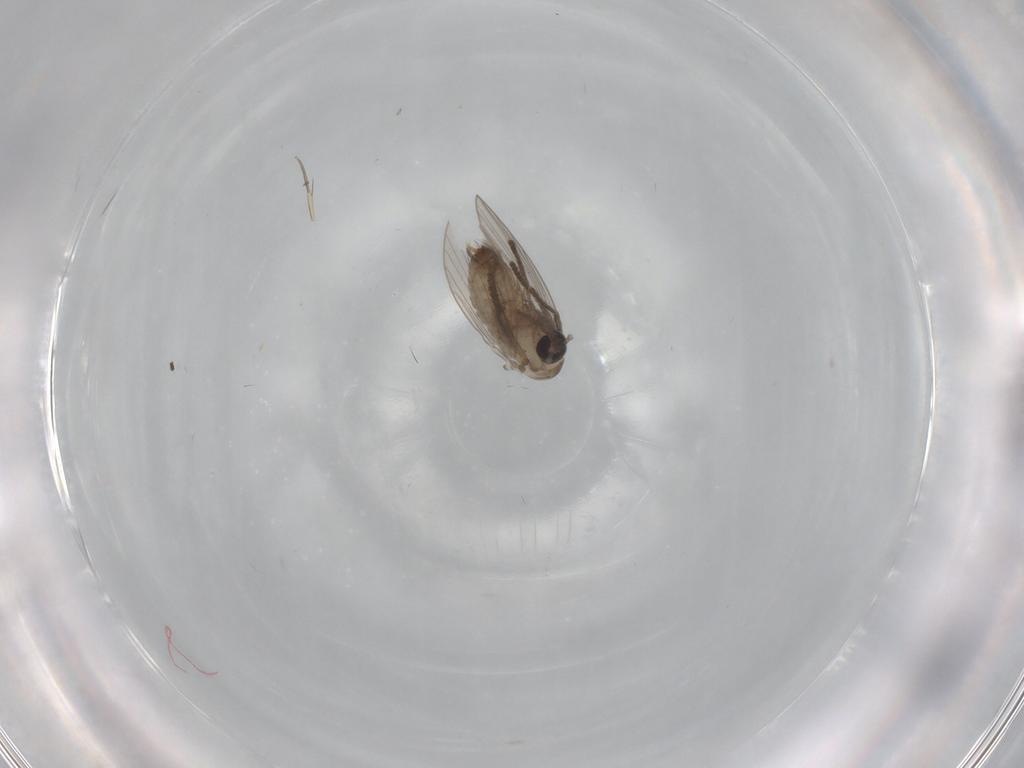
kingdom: Animalia
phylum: Arthropoda
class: Insecta
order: Diptera
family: Psychodidae
